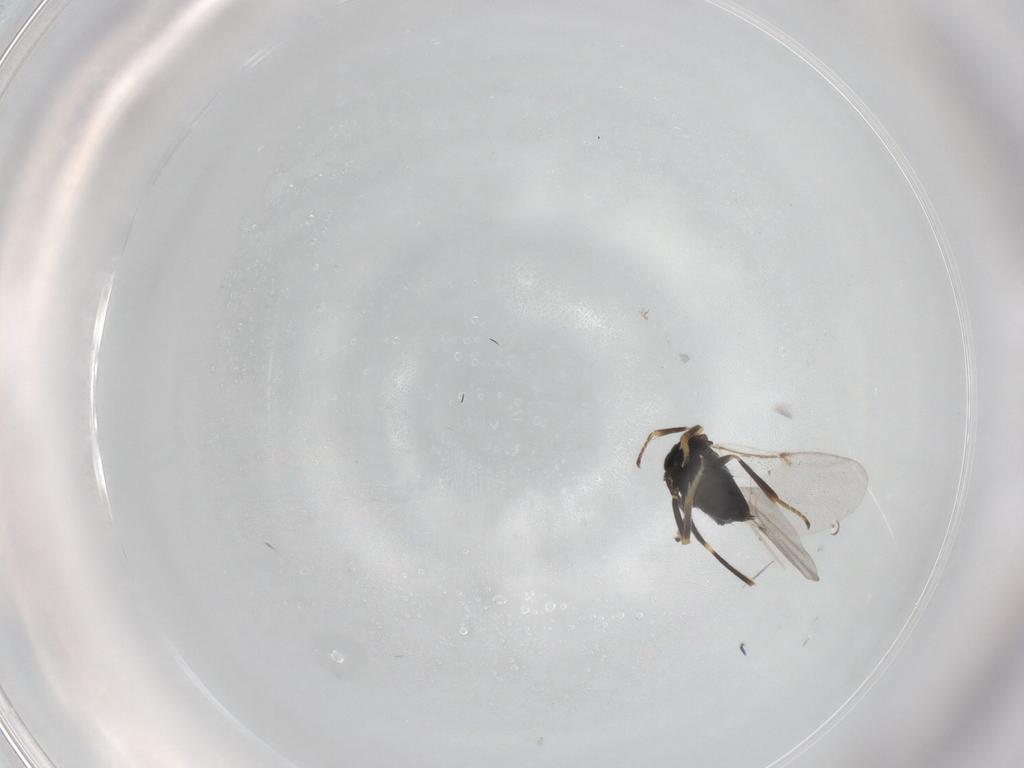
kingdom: Animalia
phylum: Arthropoda
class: Insecta
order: Hymenoptera
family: Encyrtidae
